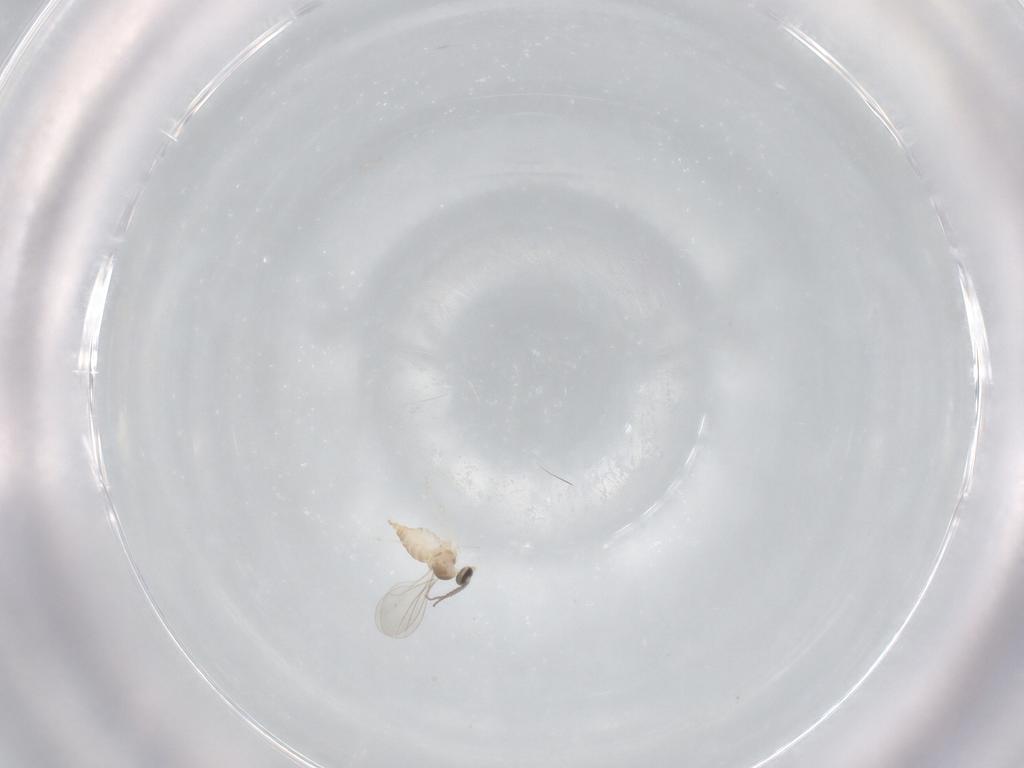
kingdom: Animalia
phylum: Arthropoda
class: Insecta
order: Diptera
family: Cecidomyiidae
